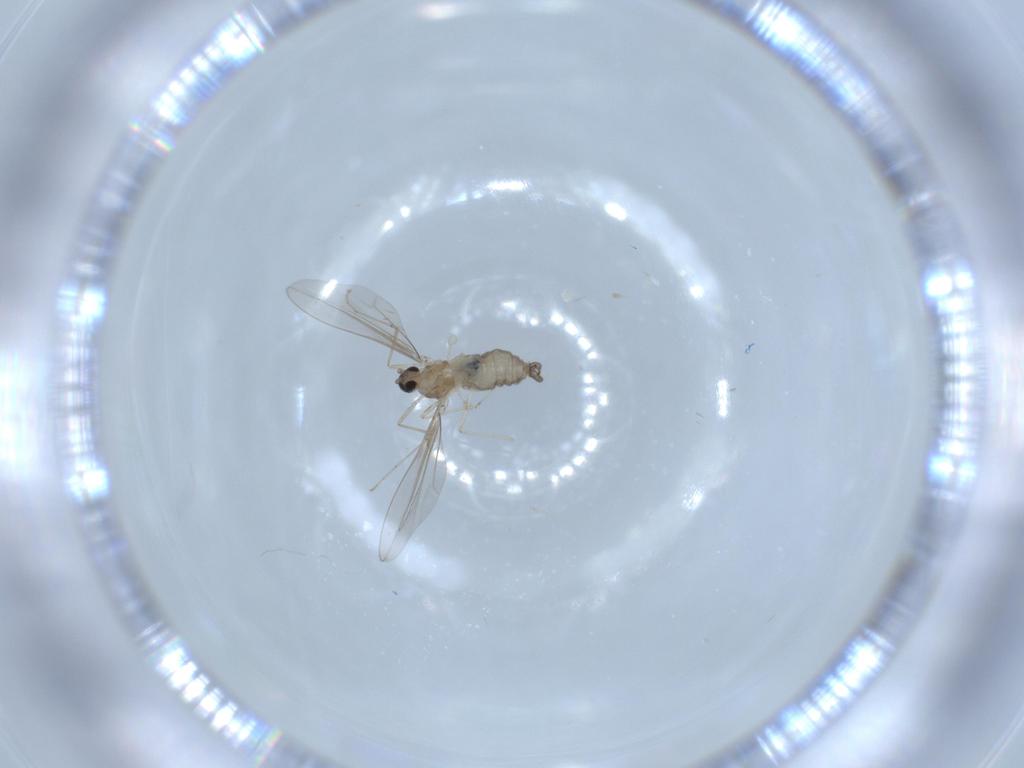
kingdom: Animalia
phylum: Arthropoda
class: Insecta
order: Diptera
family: Cecidomyiidae
